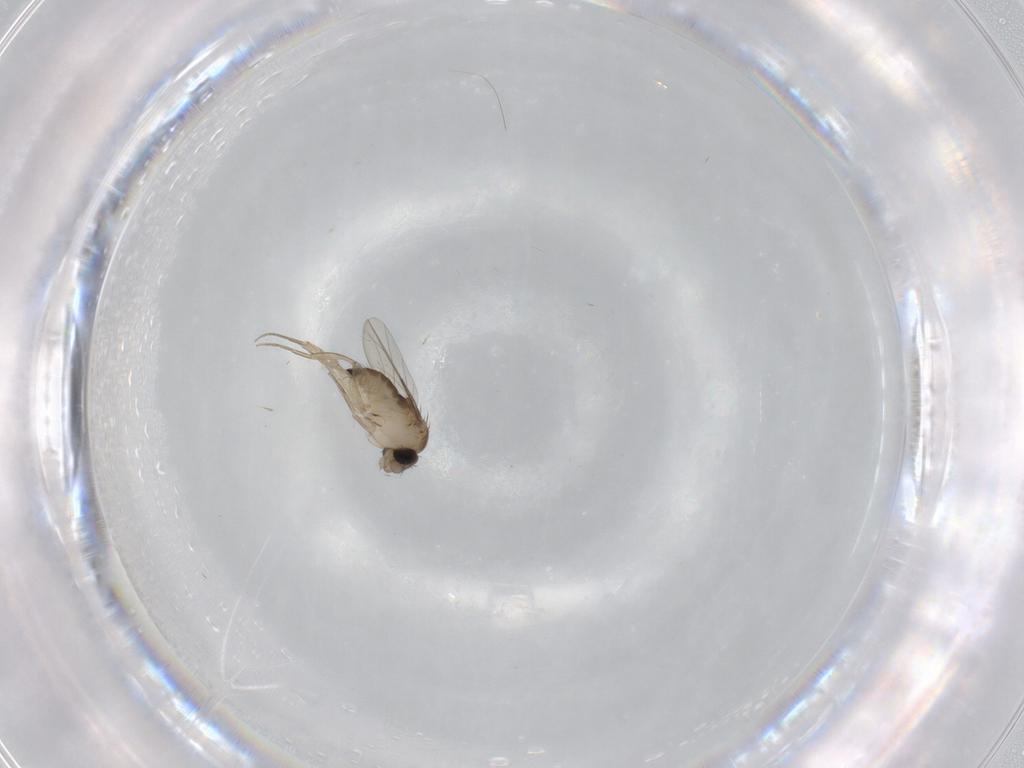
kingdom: Animalia
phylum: Arthropoda
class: Insecta
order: Diptera
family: Phoridae
